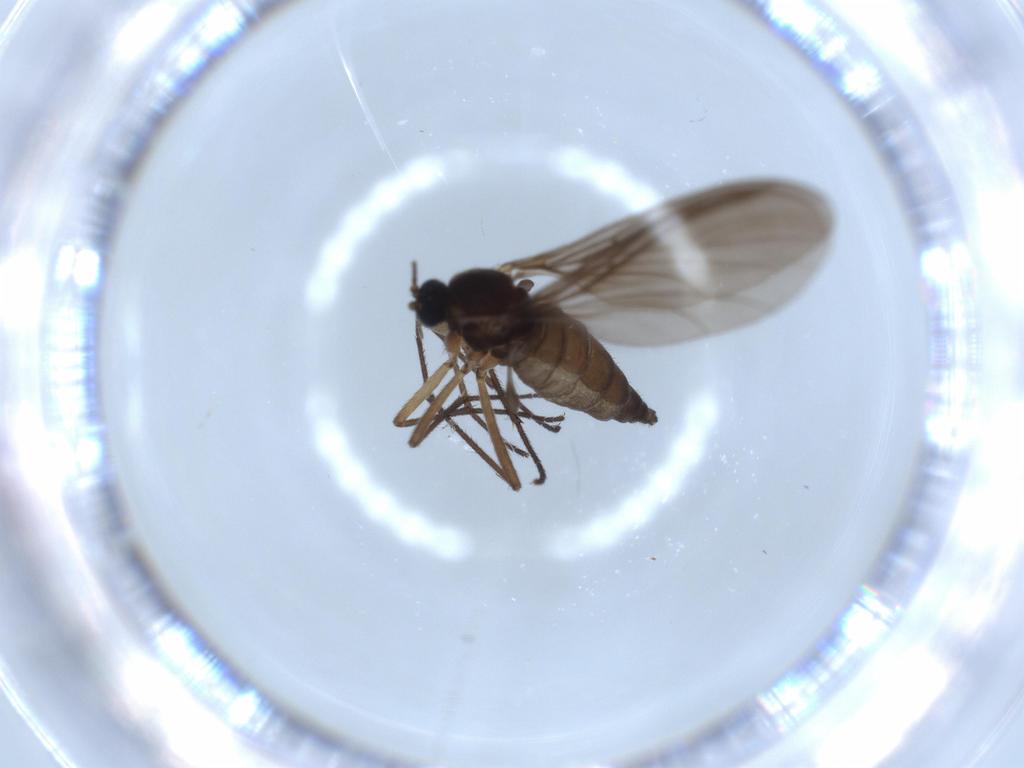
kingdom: Animalia
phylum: Arthropoda
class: Insecta
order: Diptera
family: Sciaridae
